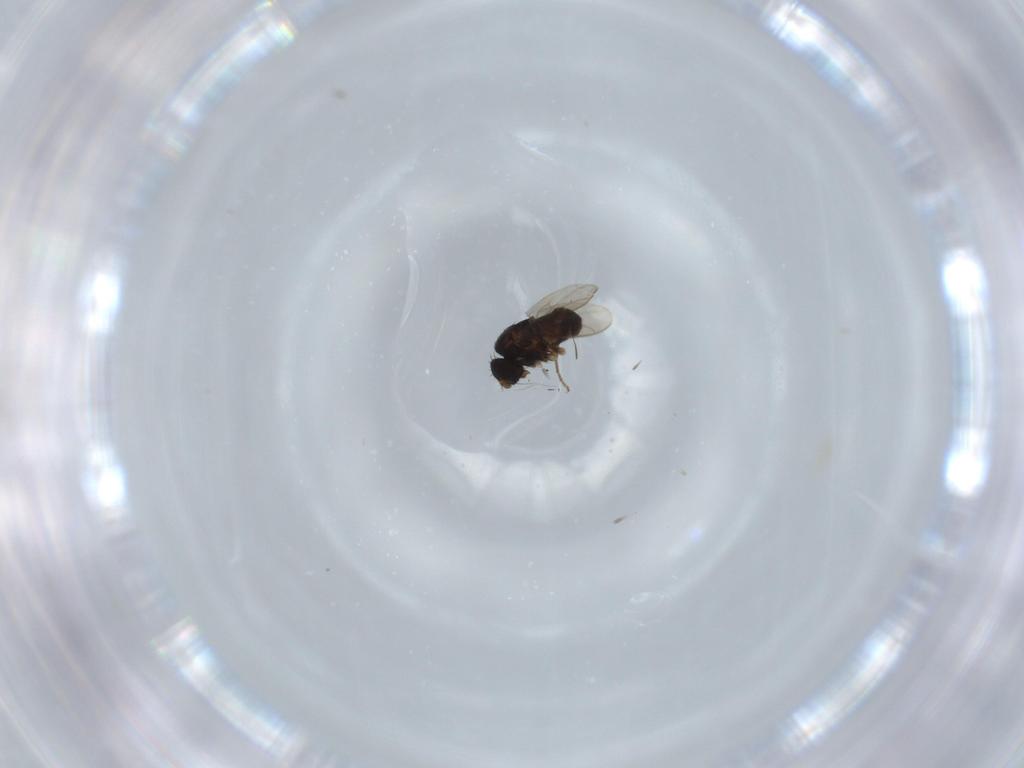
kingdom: Animalia
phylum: Arthropoda
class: Insecta
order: Diptera
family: Sphaeroceridae
